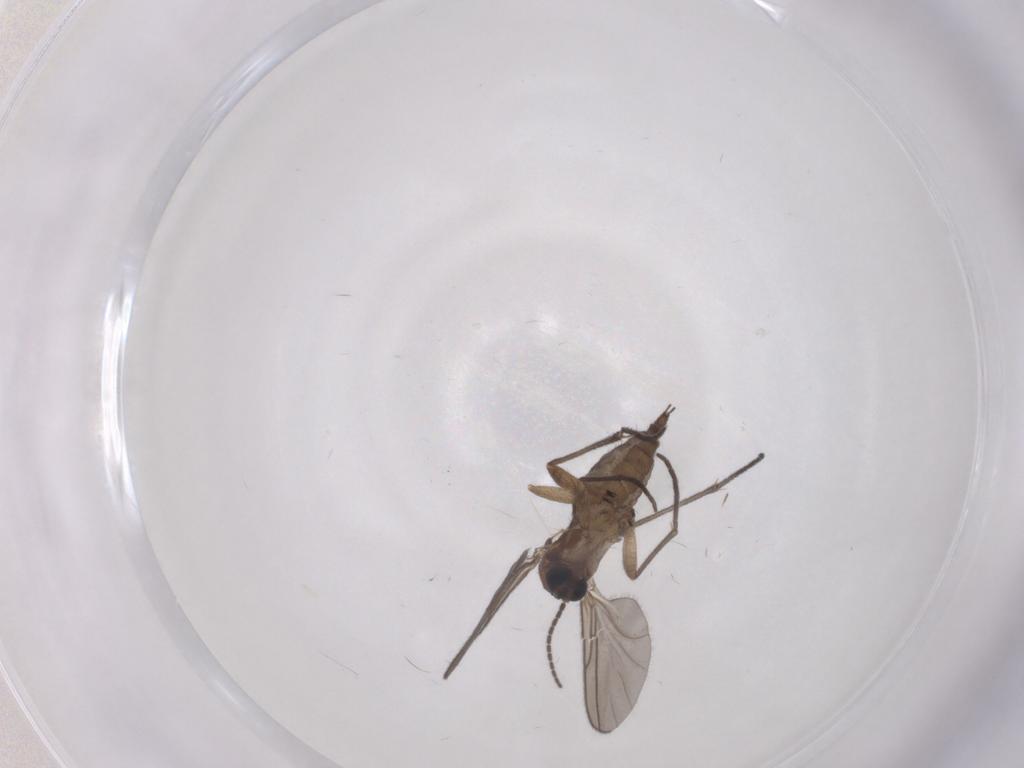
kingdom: Animalia
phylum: Arthropoda
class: Insecta
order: Diptera
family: Sciaridae
